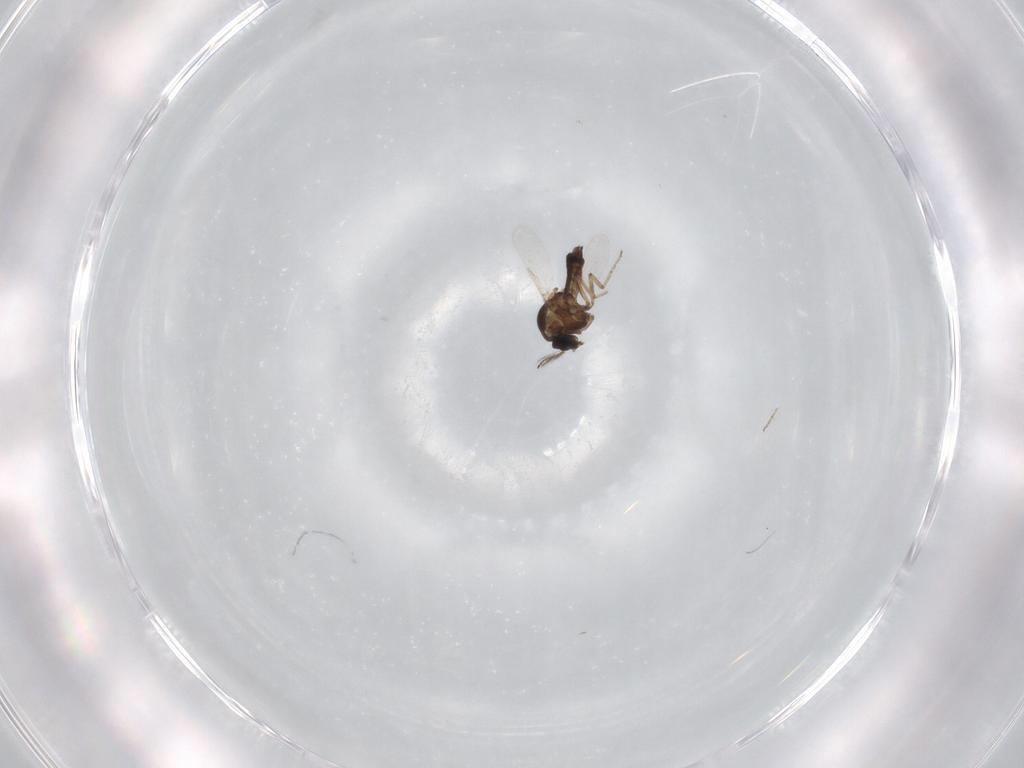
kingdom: Animalia
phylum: Arthropoda
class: Insecta
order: Diptera
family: Ceratopogonidae
